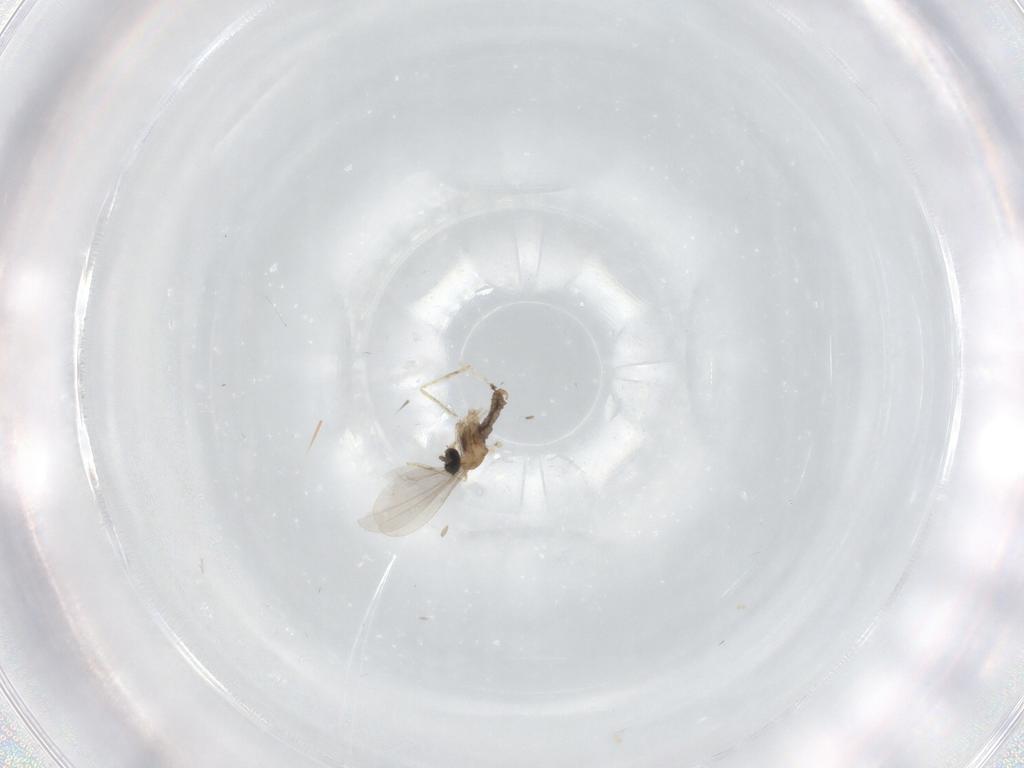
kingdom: Animalia
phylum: Arthropoda
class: Insecta
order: Diptera
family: Cecidomyiidae
